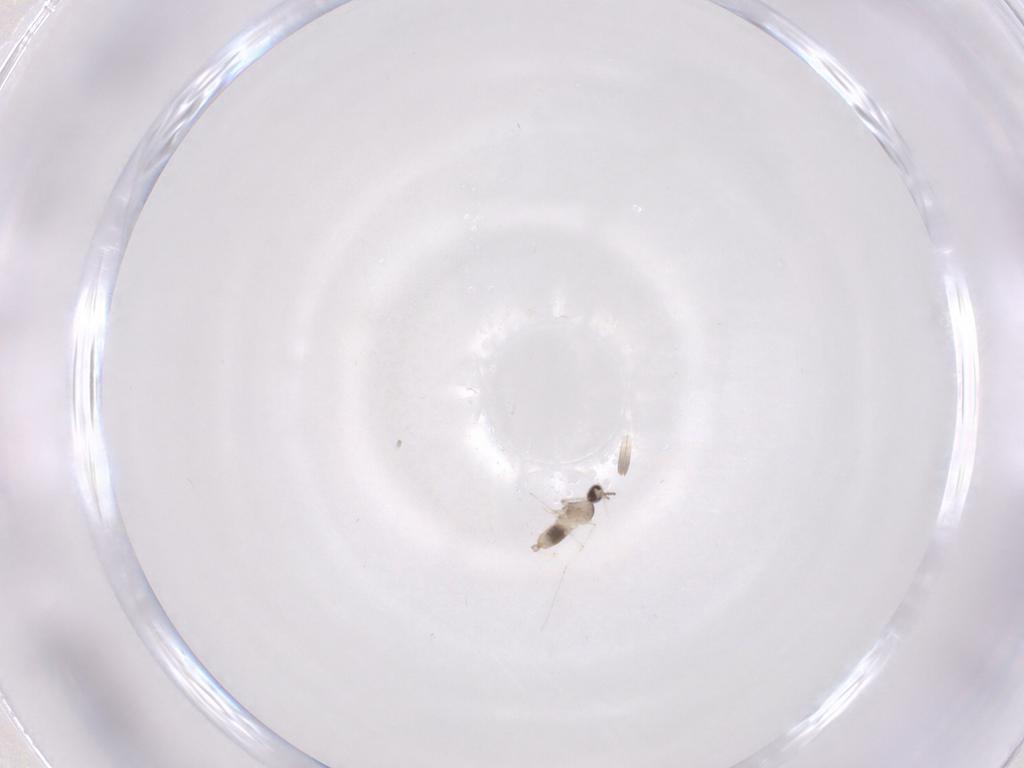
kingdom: Animalia
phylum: Arthropoda
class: Insecta
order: Diptera
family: Cecidomyiidae
